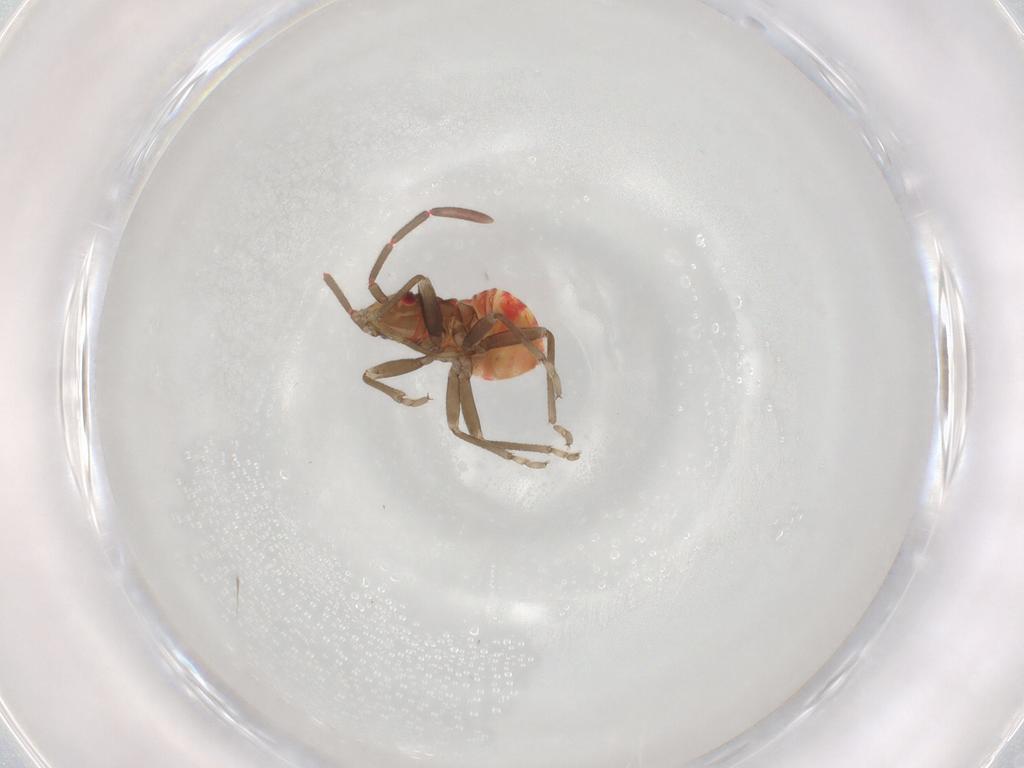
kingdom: Animalia
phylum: Arthropoda
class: Insecta
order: Hemiptera
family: Rhyparochromidae
